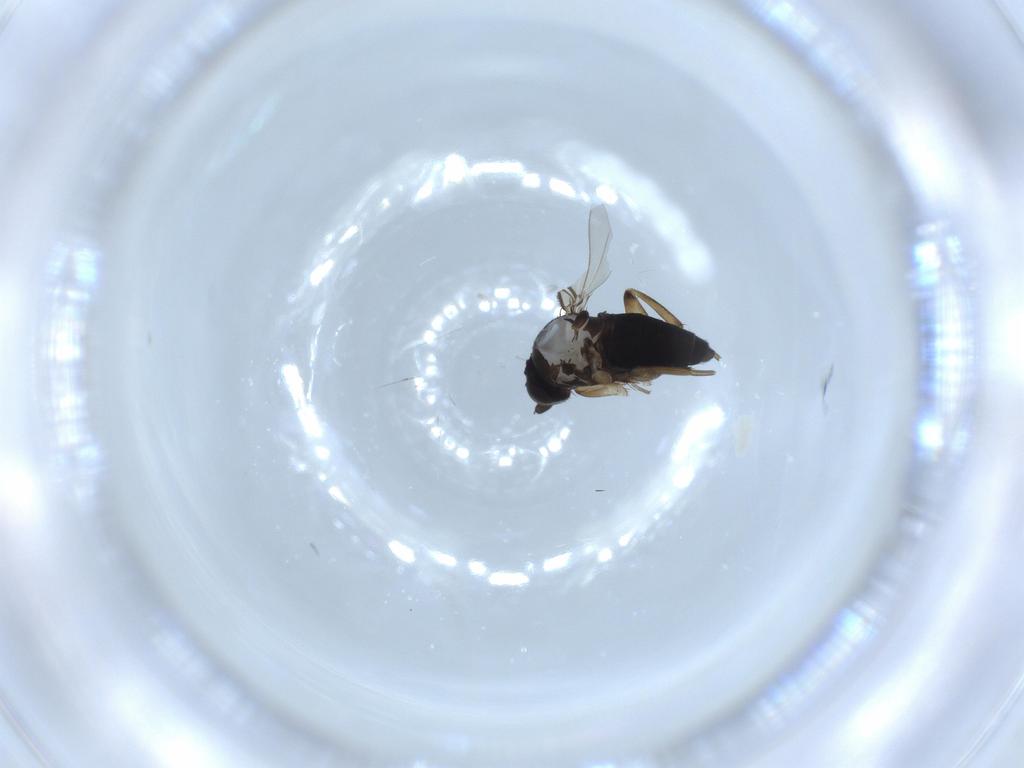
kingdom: Animalia
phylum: Arthropoda
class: Insecta
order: Diptera
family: Phoridae
